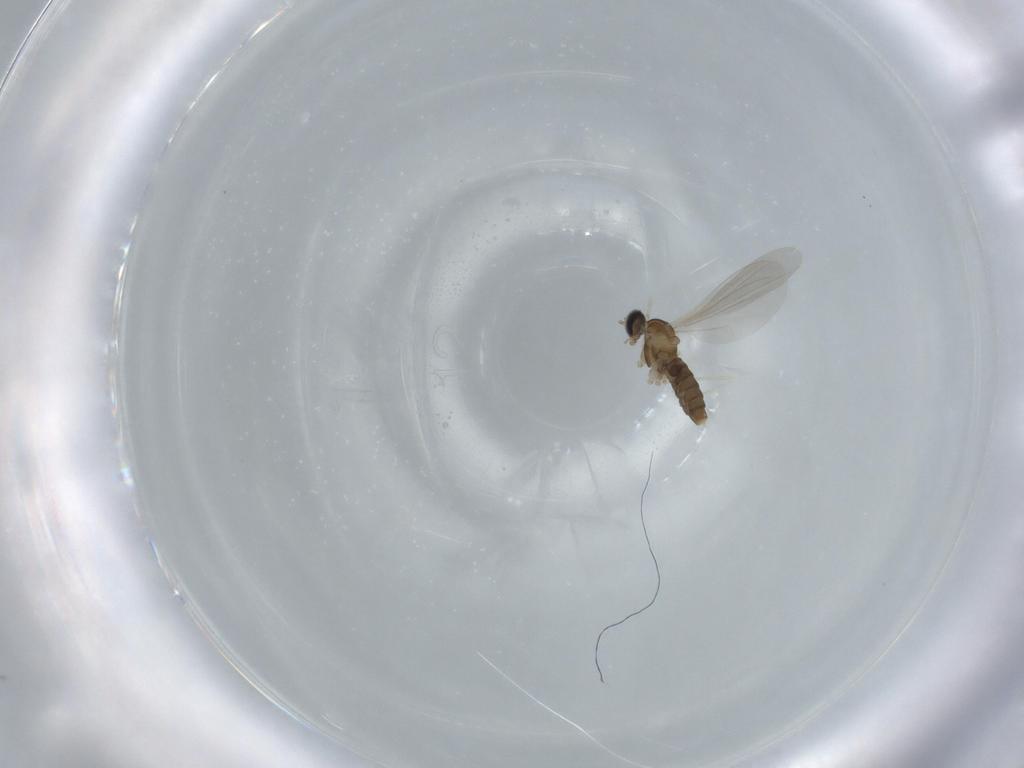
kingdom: Animalia
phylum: Arthropoda
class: Insecta
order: Diptera
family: Cecidomyiidae
